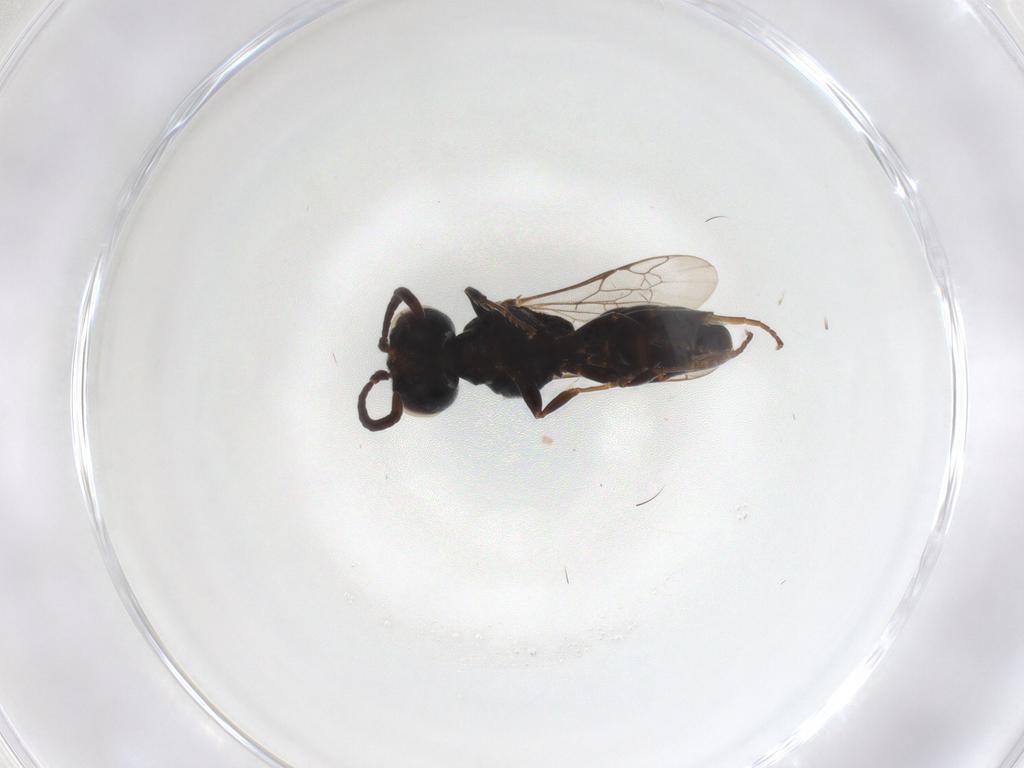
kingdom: Animalia
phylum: Arthropoda
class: Insecta
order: Hymenoptera
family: Crabronidae
